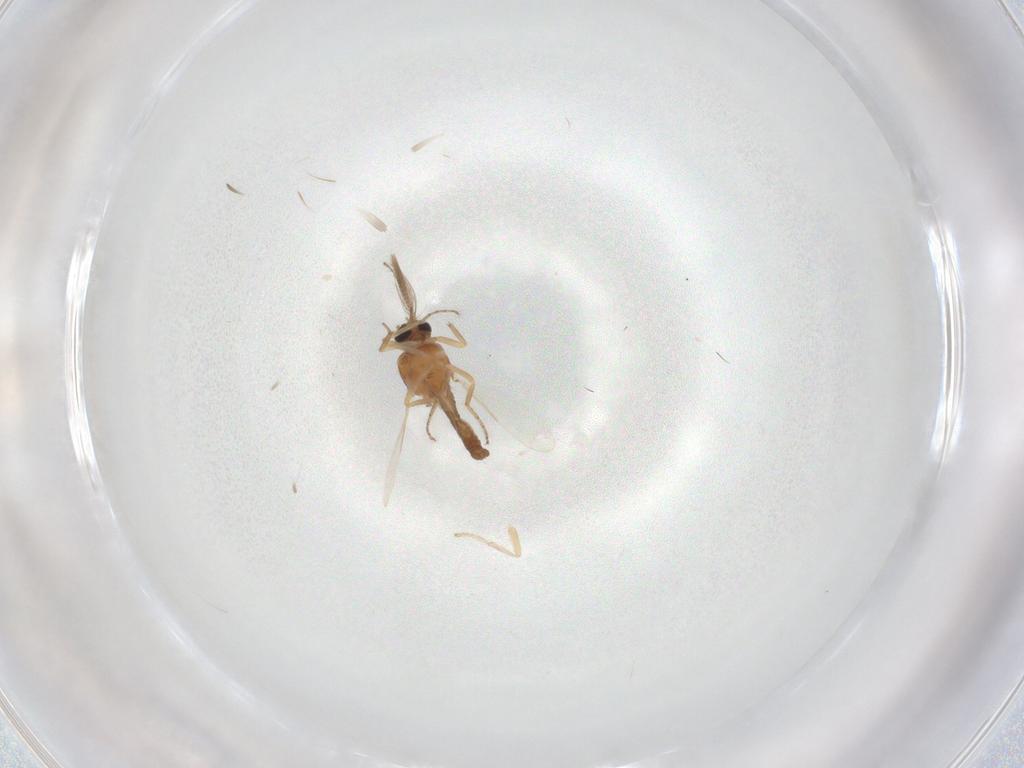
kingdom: Animalia
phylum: Arthropoda
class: Insecta
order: Diptera
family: Ceratopogonidae
